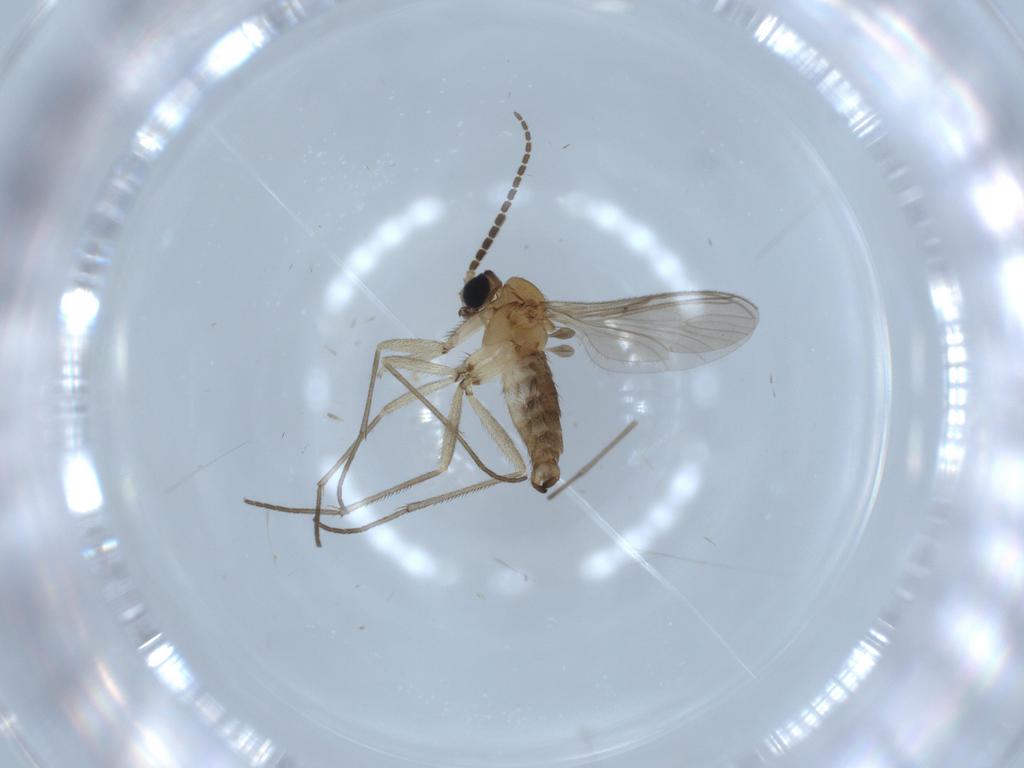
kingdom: Animalia
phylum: Arthropoda
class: Insecta
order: Diptera
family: Sciaridae
